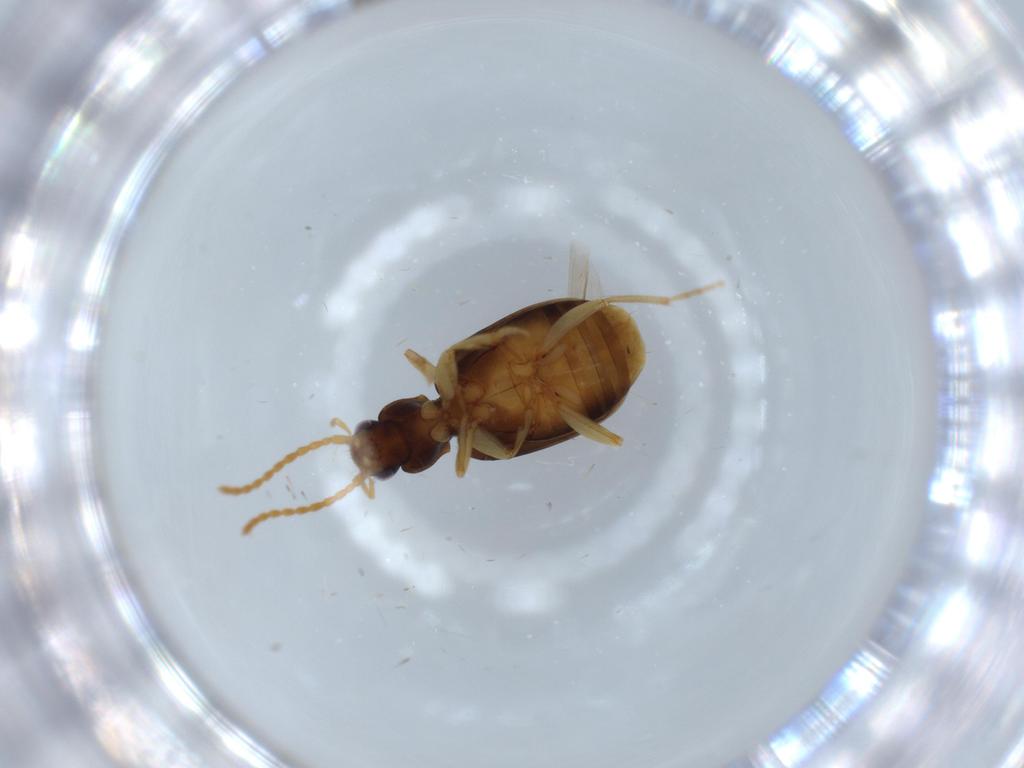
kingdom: Animalia
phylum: Arthropoda
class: Insecta
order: Coleoptera
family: Carabidae
